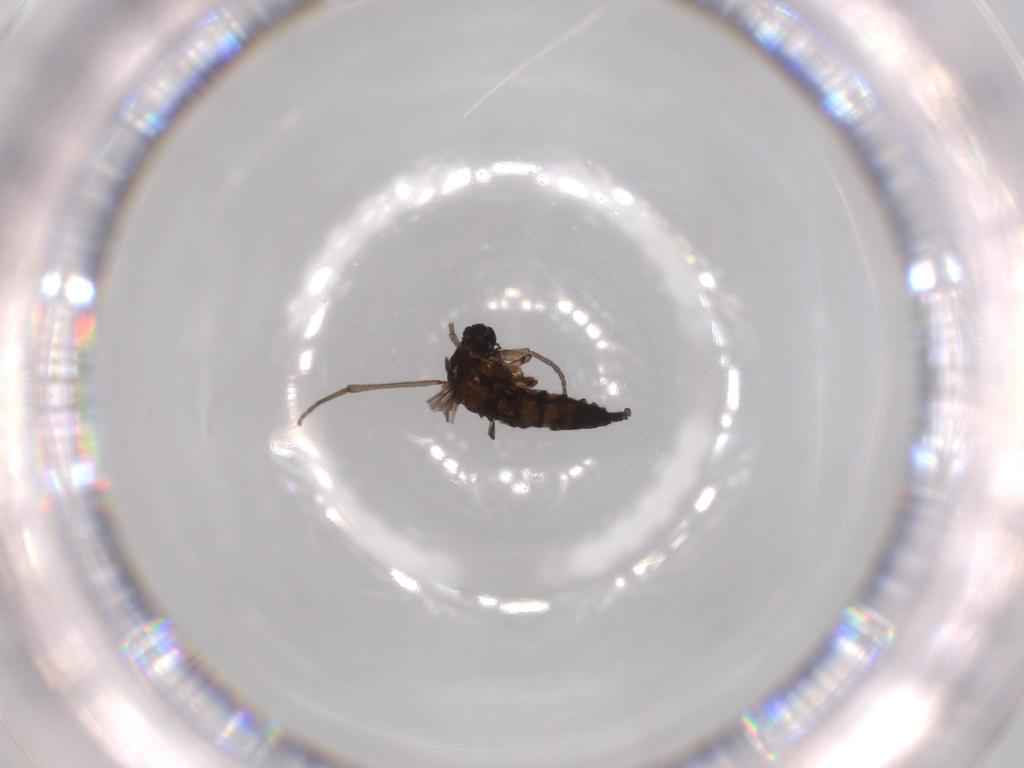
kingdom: Animalia
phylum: Arthropoda
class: Insecta
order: Diptera
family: Sciaridae
